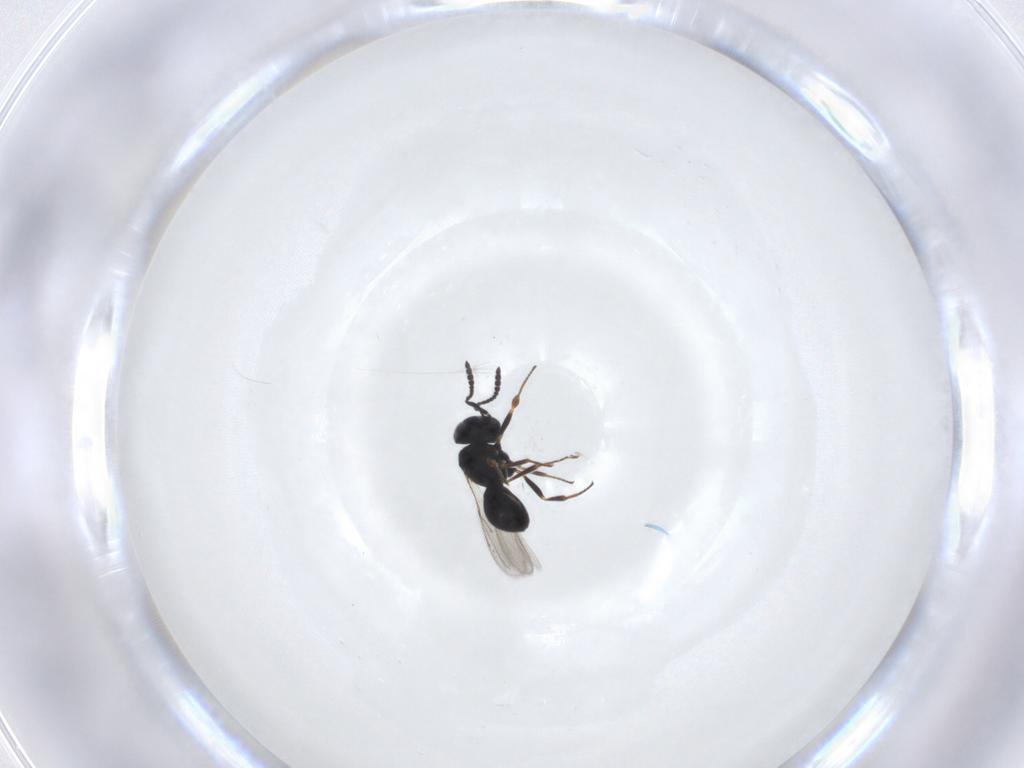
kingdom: Animalia
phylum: Arthropoda
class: Insecta
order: Hymenoptera
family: Scelionidae
